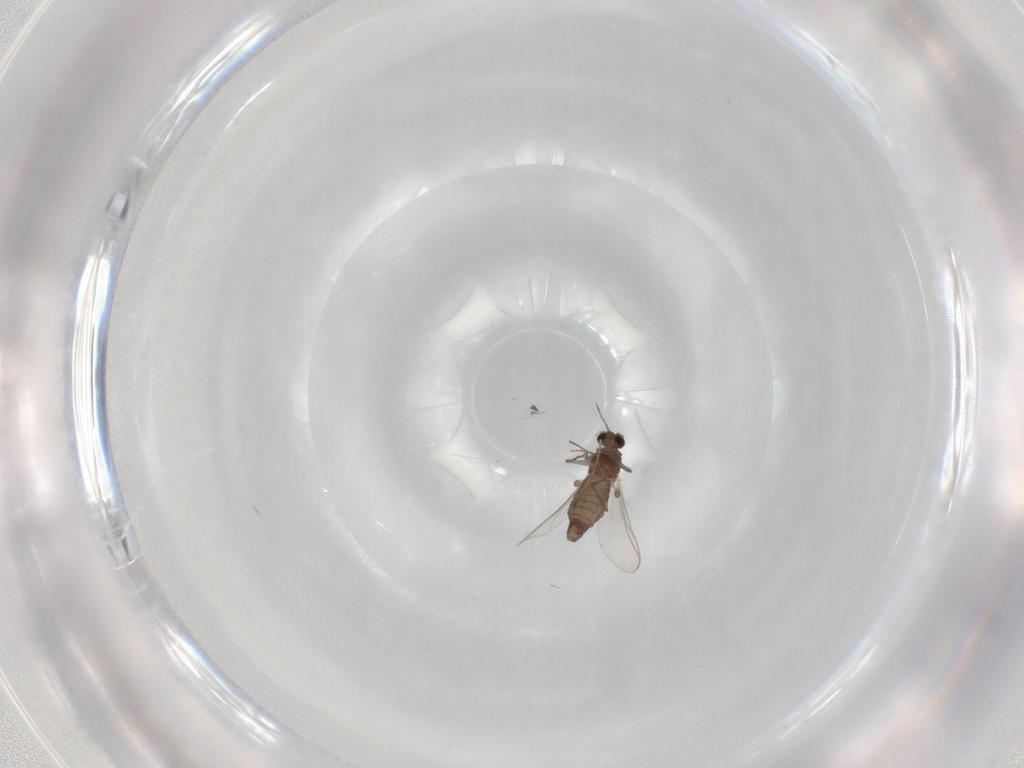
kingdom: Animalia
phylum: Arthropoda
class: Insecta
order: Diptera
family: Chironomidae
